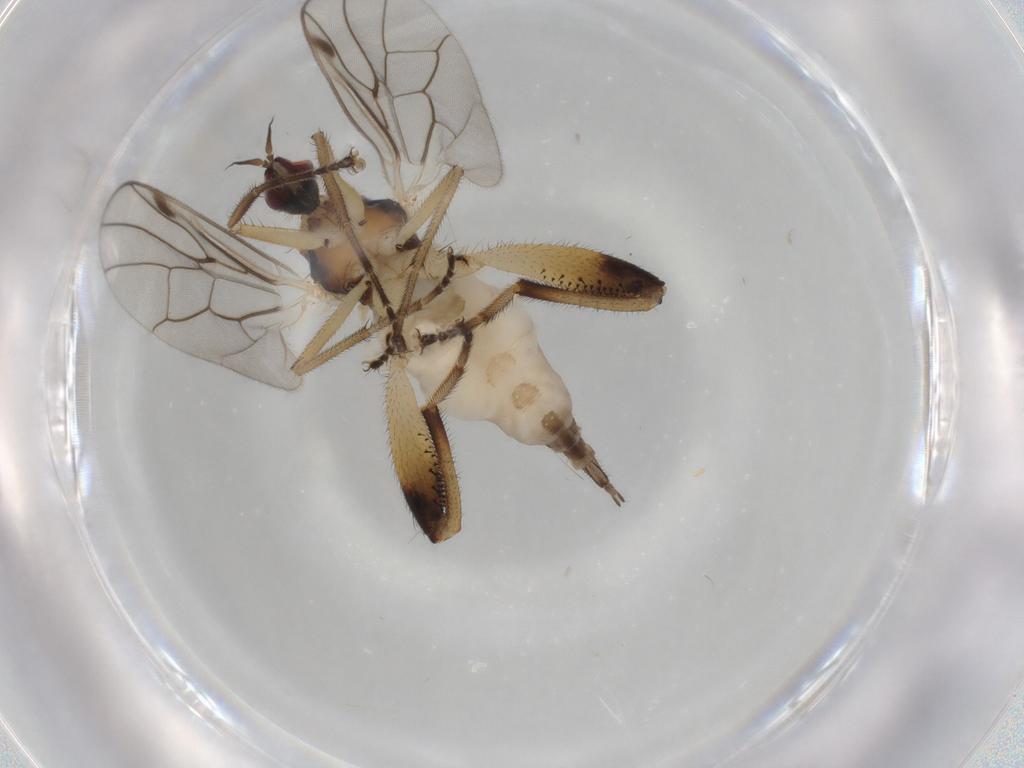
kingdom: Animalia
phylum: Arthropoda
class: Insecta
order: Diptera
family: Hybotidae
